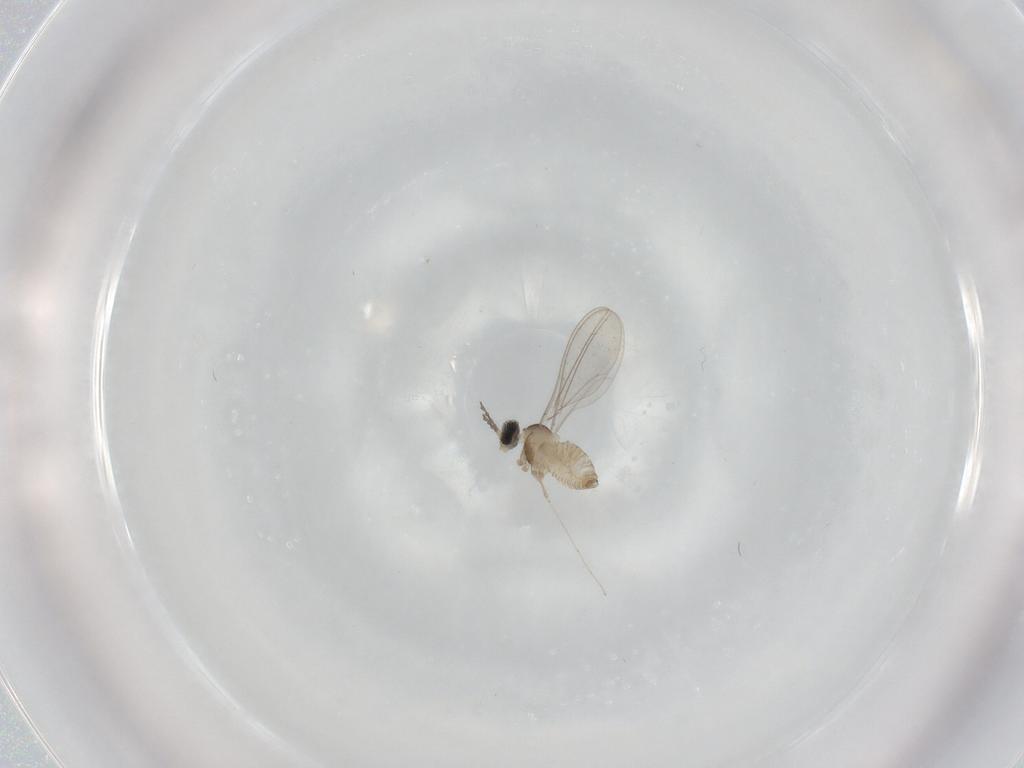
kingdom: Animalia
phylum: Arthropoda
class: Insecta
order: Diptera
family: Cecidomyiidae
